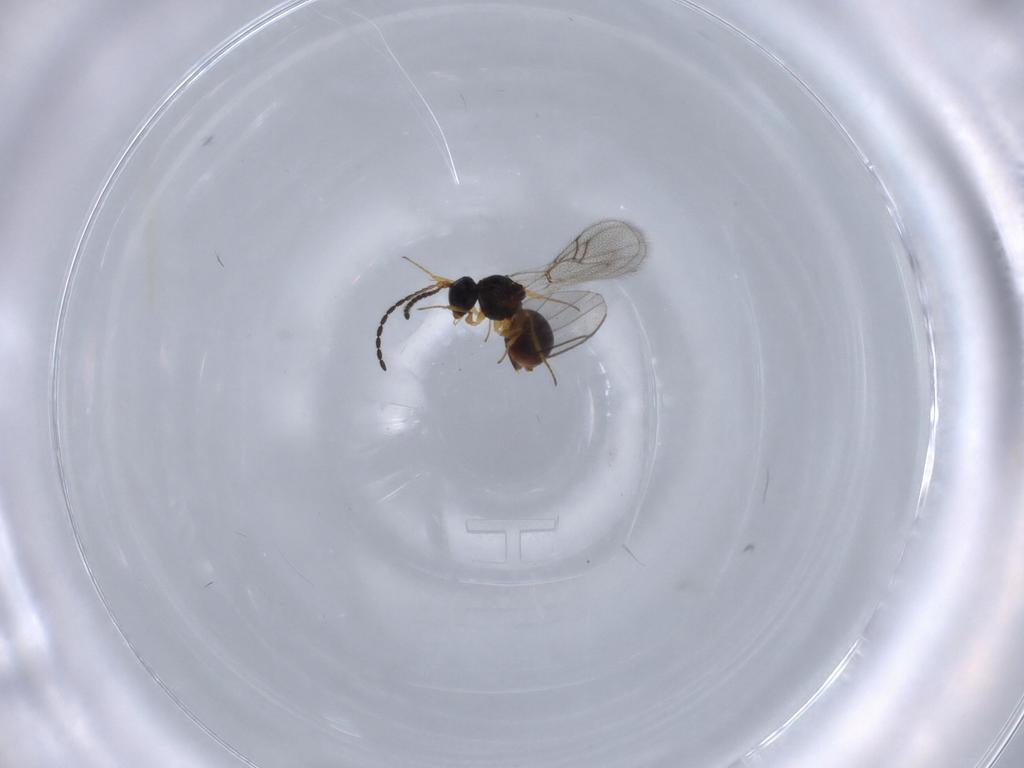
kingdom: Animalia
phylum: Arthropoda
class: Insecta
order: Hymenoptera
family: Figitidae
